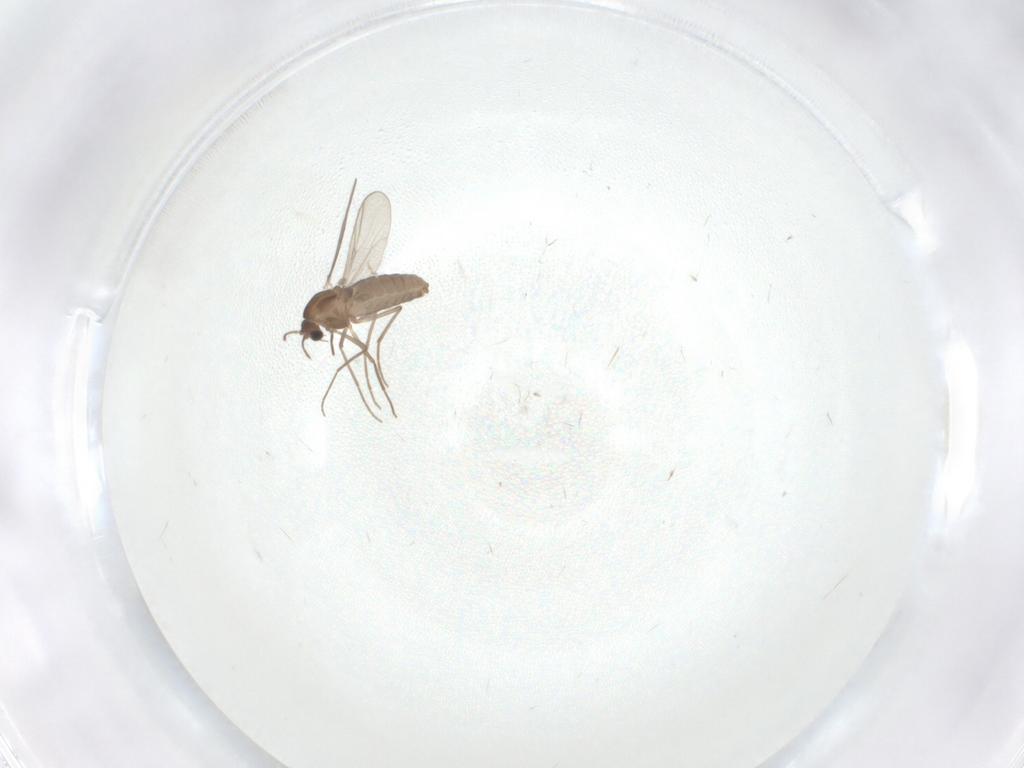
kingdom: Animalia
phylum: Arthropoda
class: Insecta
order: Diptera
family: Chironomidae
